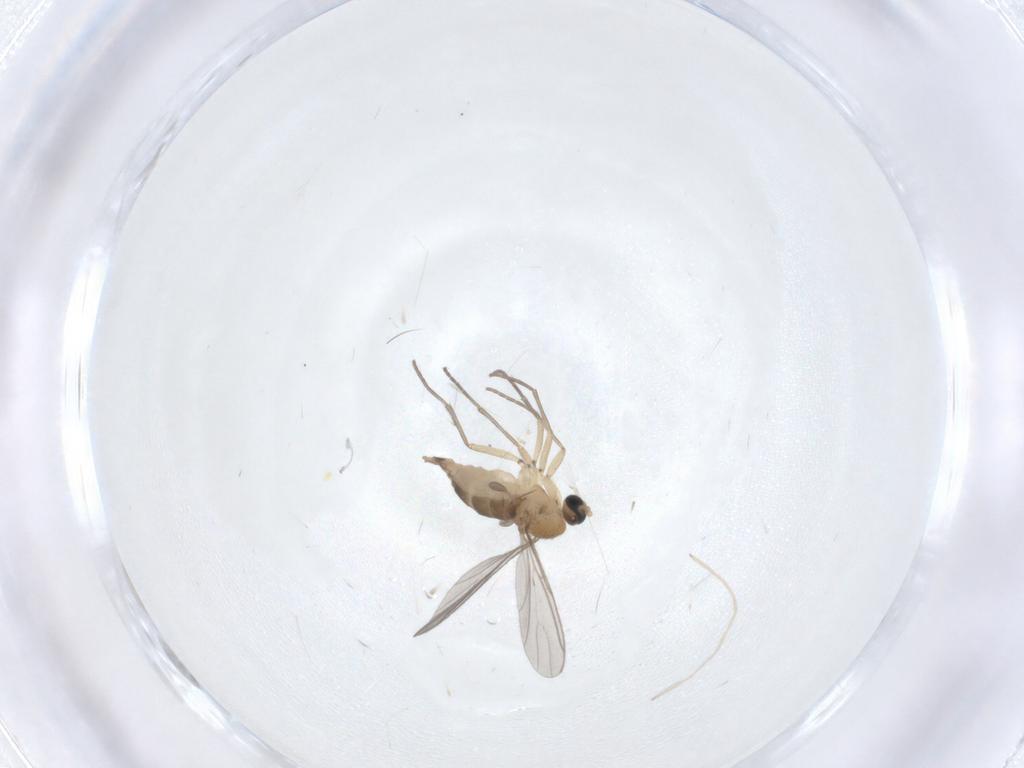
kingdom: Animalia
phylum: Arthropoda
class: Insecta
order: Diptera
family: Sciaridae
